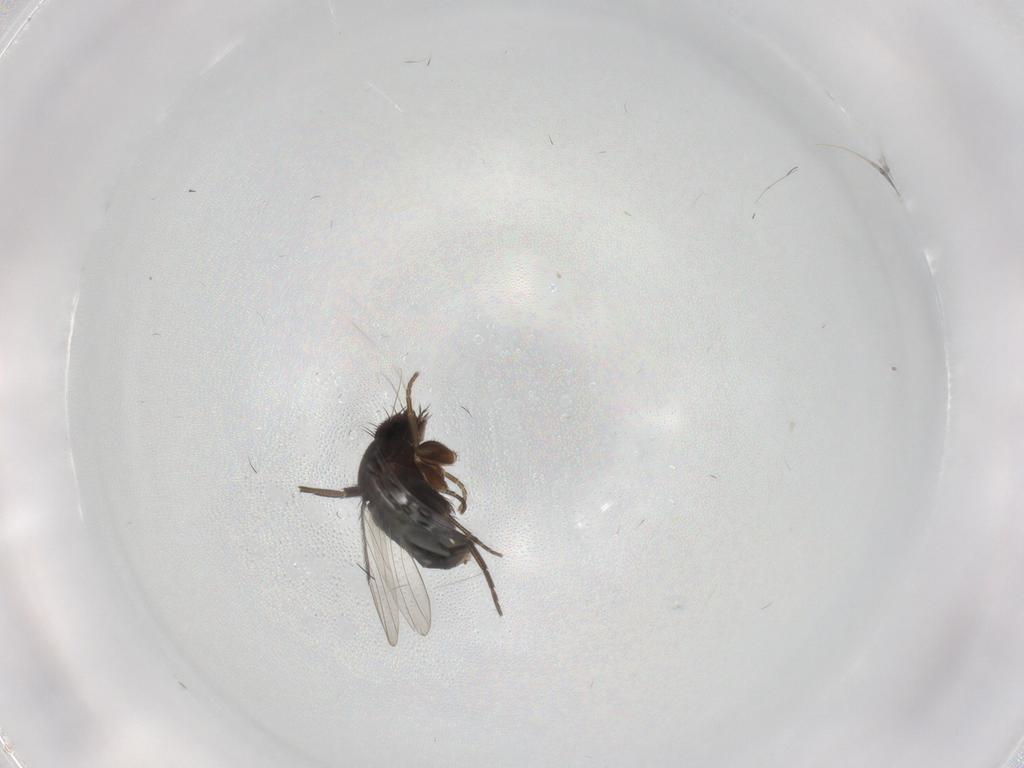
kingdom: Animalia
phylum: Arthropoda
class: Insecta
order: Diptera
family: Phoridae
